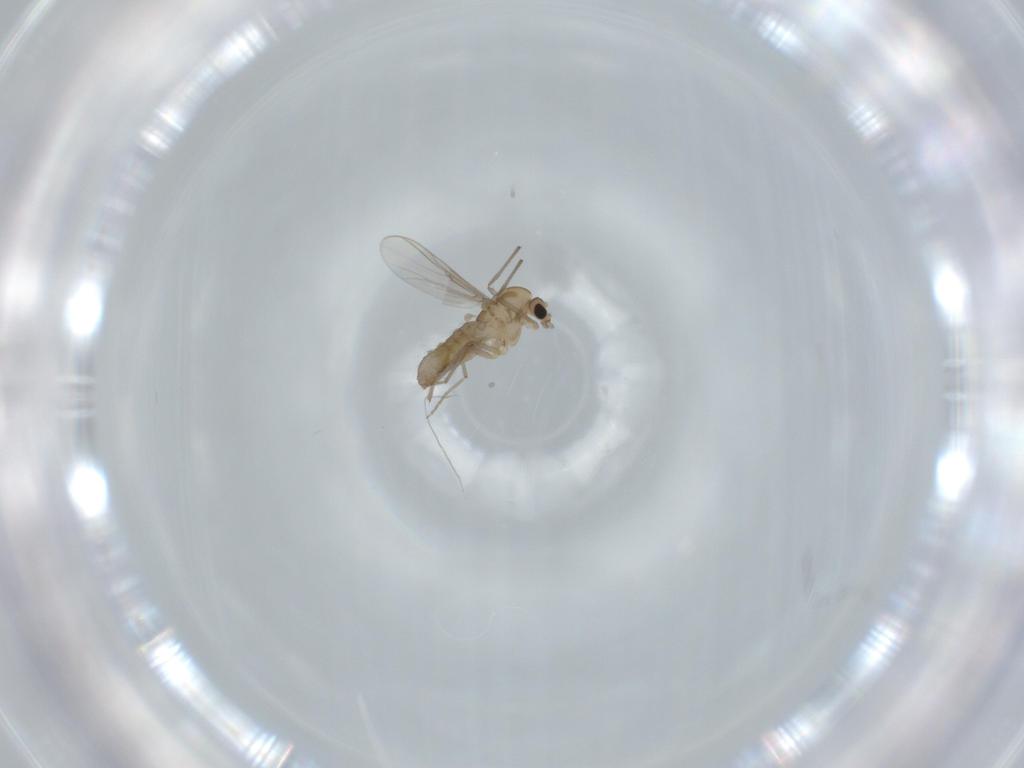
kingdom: Animalia
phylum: Arthropoda
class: Insecta
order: Diptera
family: Chironomidae
